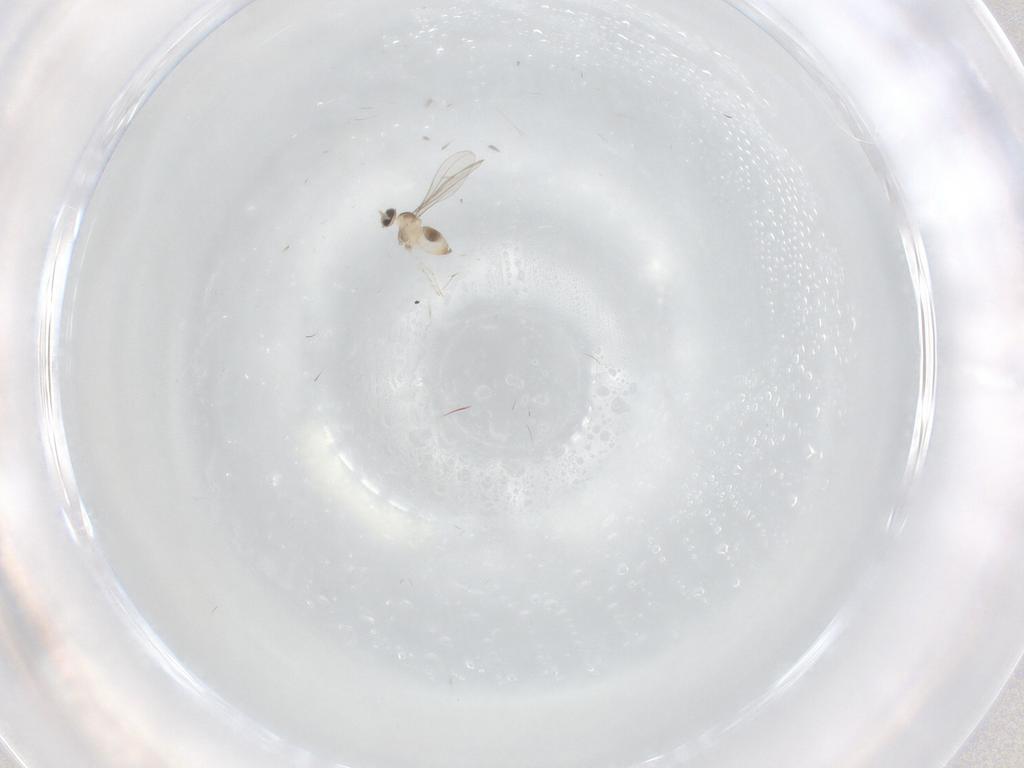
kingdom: Animalia
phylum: Arthropoda
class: Insecta
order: Diptera
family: Cecidomyiidae
